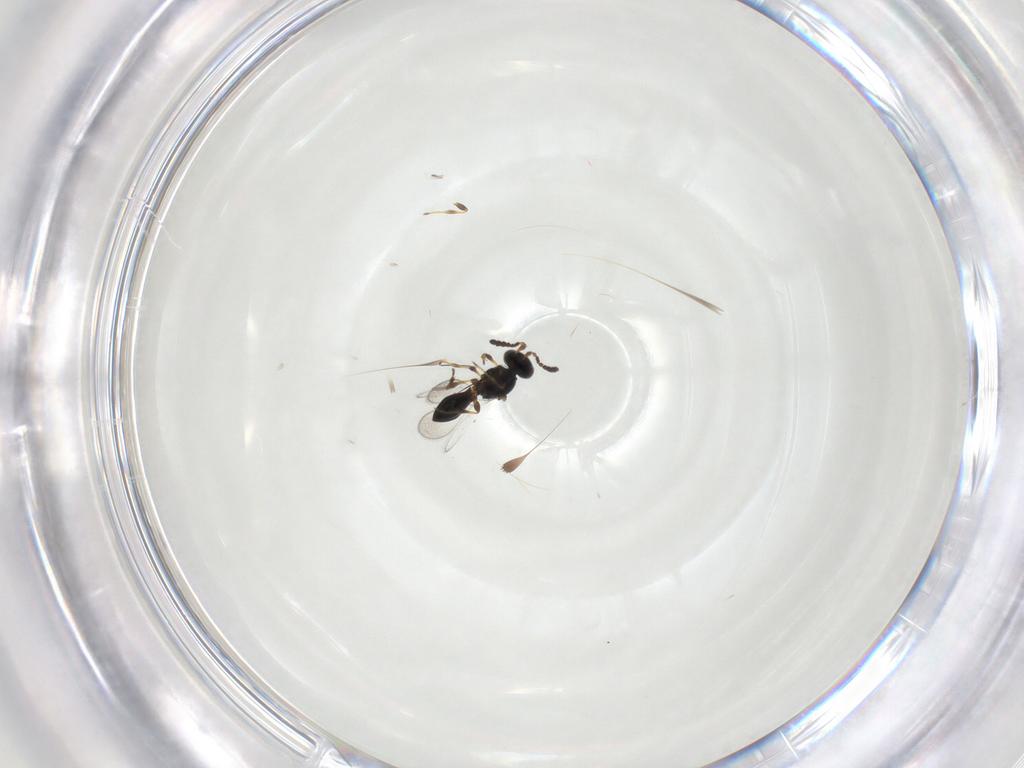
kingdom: Animalia
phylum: Arthropoda
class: Insecta
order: Hymenoptera
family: Platygastridae
